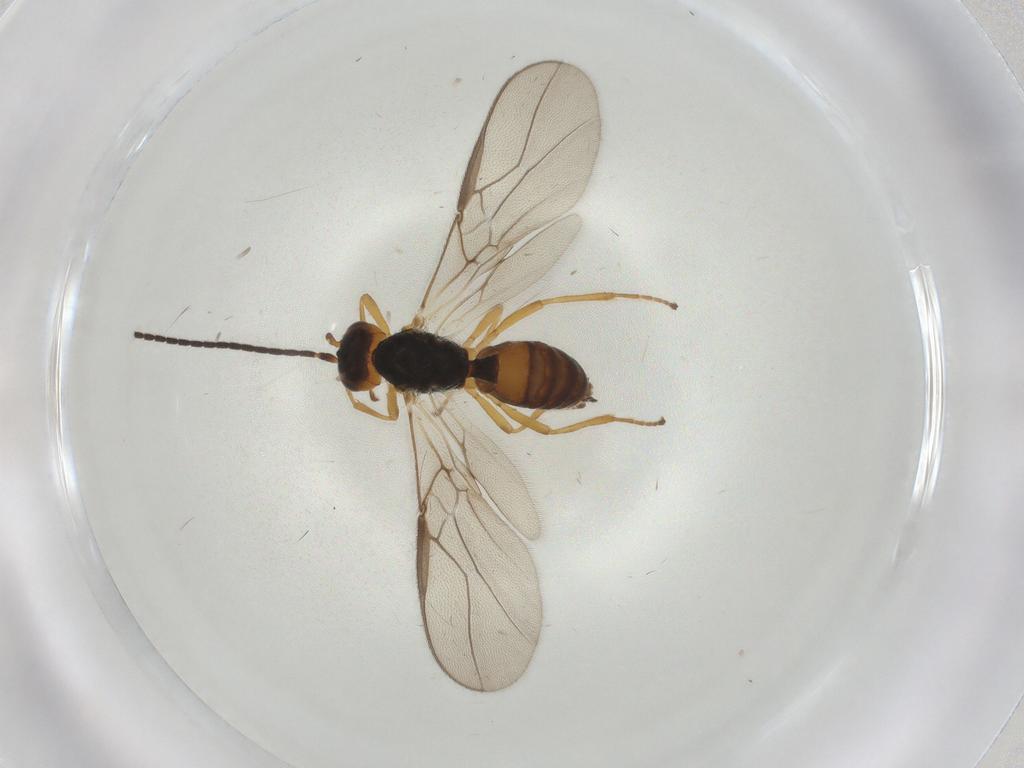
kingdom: Animalia
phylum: Arthropoda
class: Insecta
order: Hymenoptera
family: Braconidae
